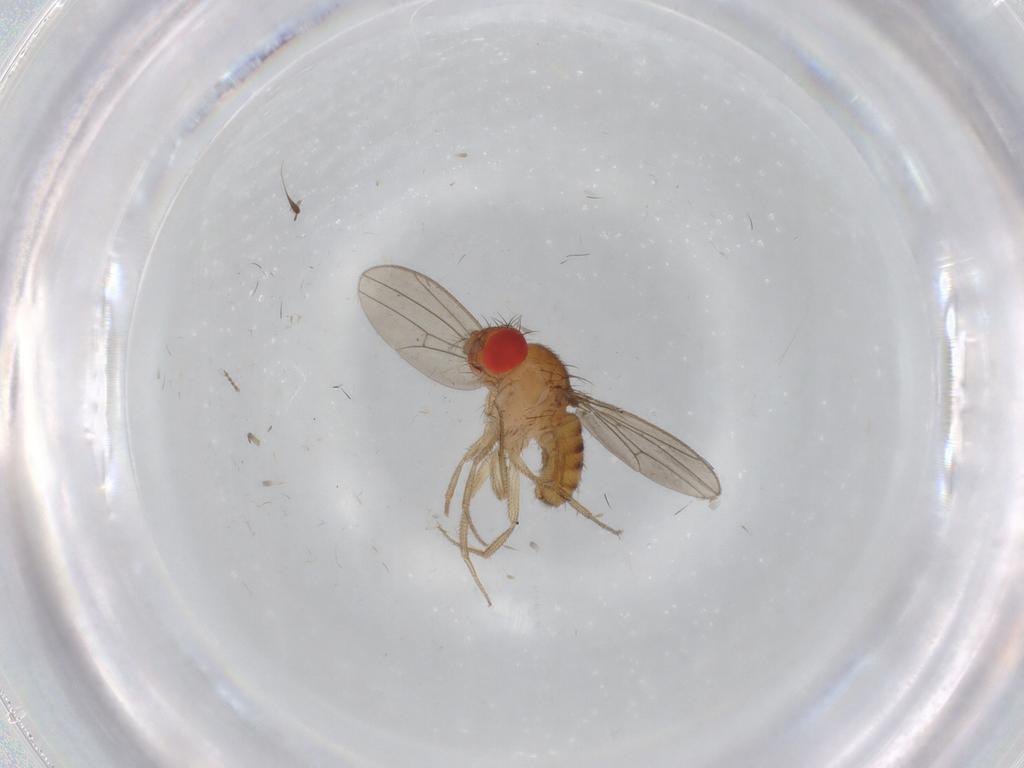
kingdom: Animalia
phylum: Arthropoda
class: Insecta
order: Diptera
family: Drosophilidae
